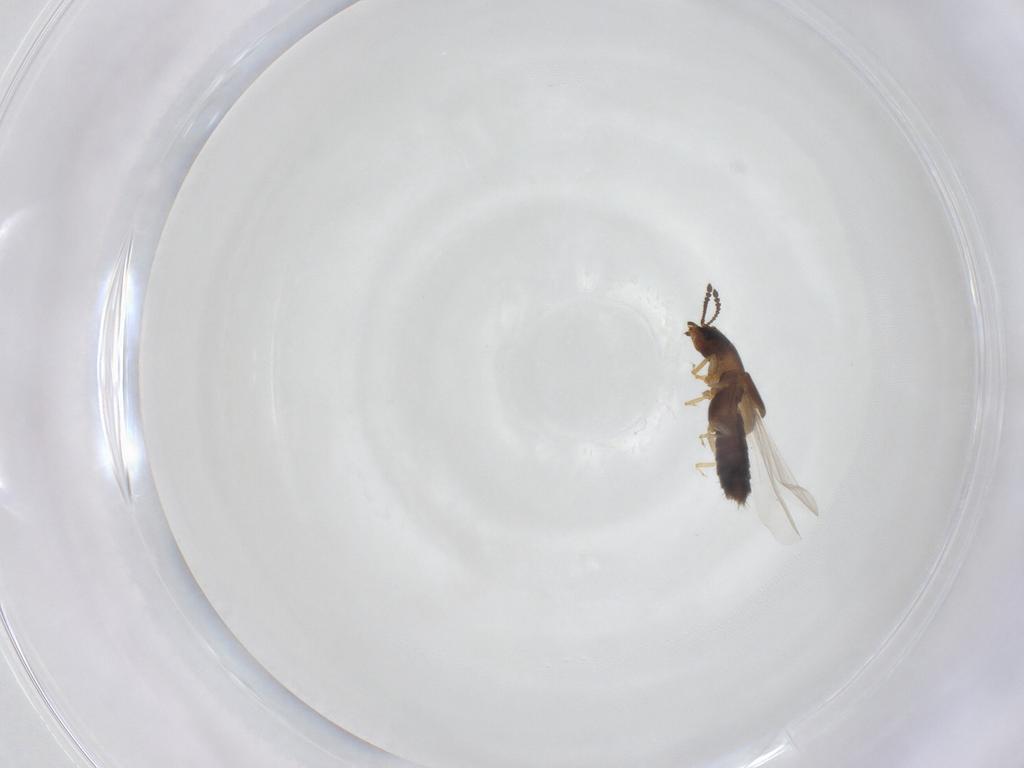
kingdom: Animalia
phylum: Arthropoda
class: Insecta
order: Coleoptera
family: Staphylinidae
